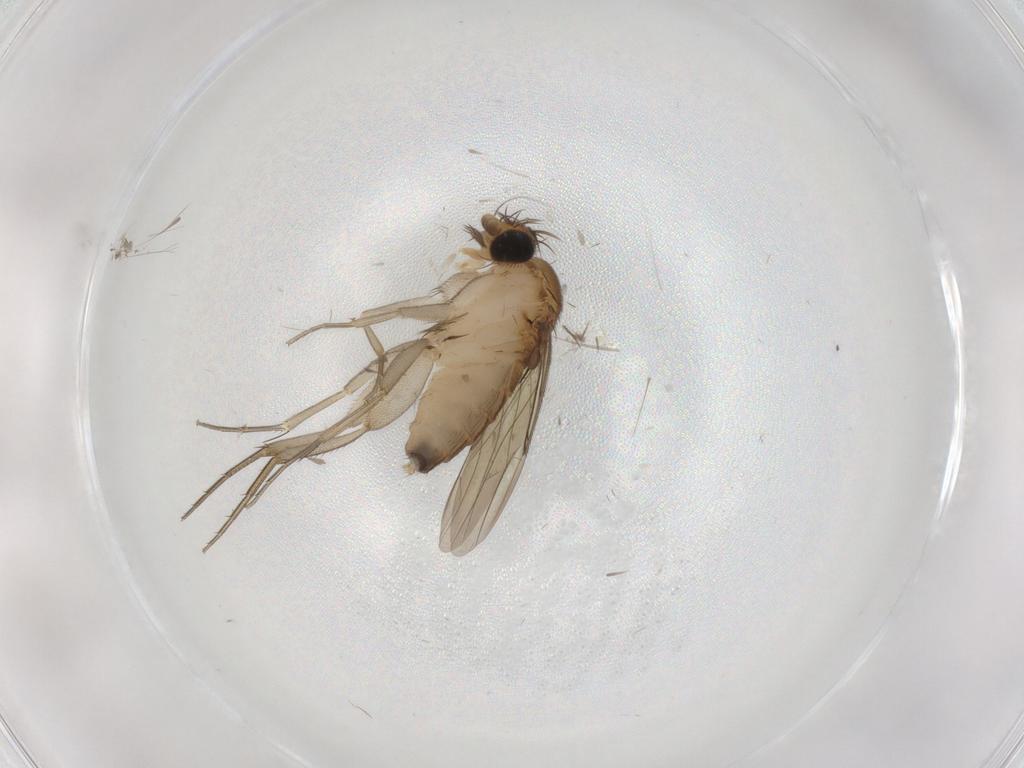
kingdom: Animalia
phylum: Arthropoda
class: Insecta
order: Diptera
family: Phoridae
